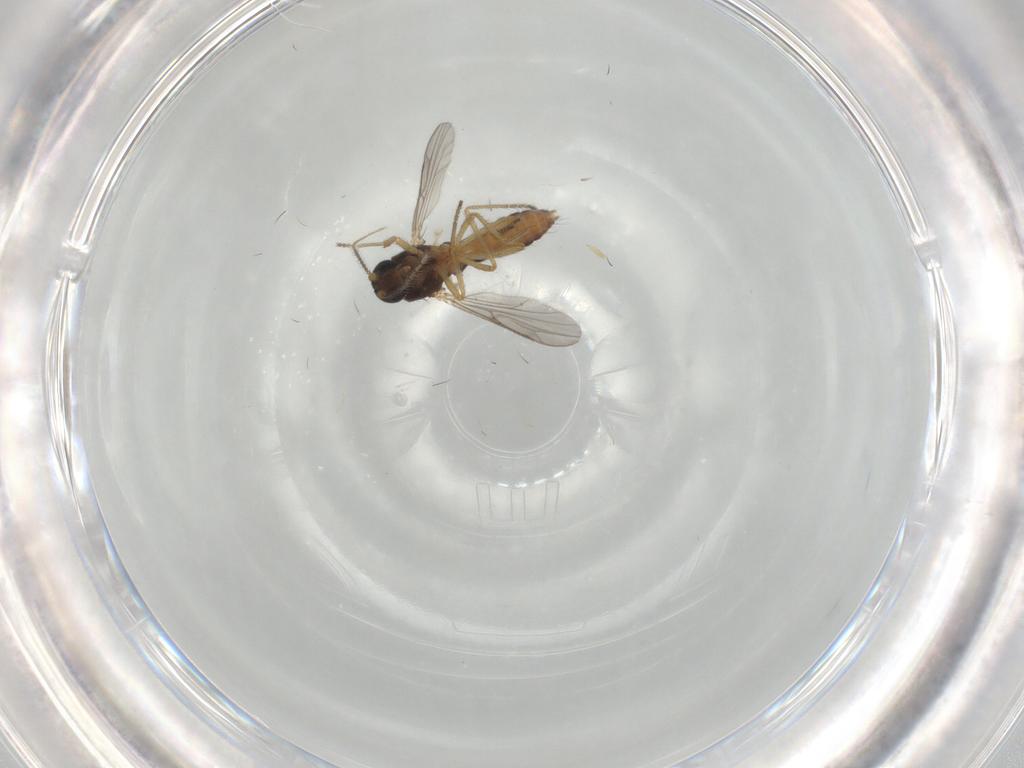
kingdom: Animalia
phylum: Arthropoda
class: Insecta
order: Diptera
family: Ceratopogonidae
